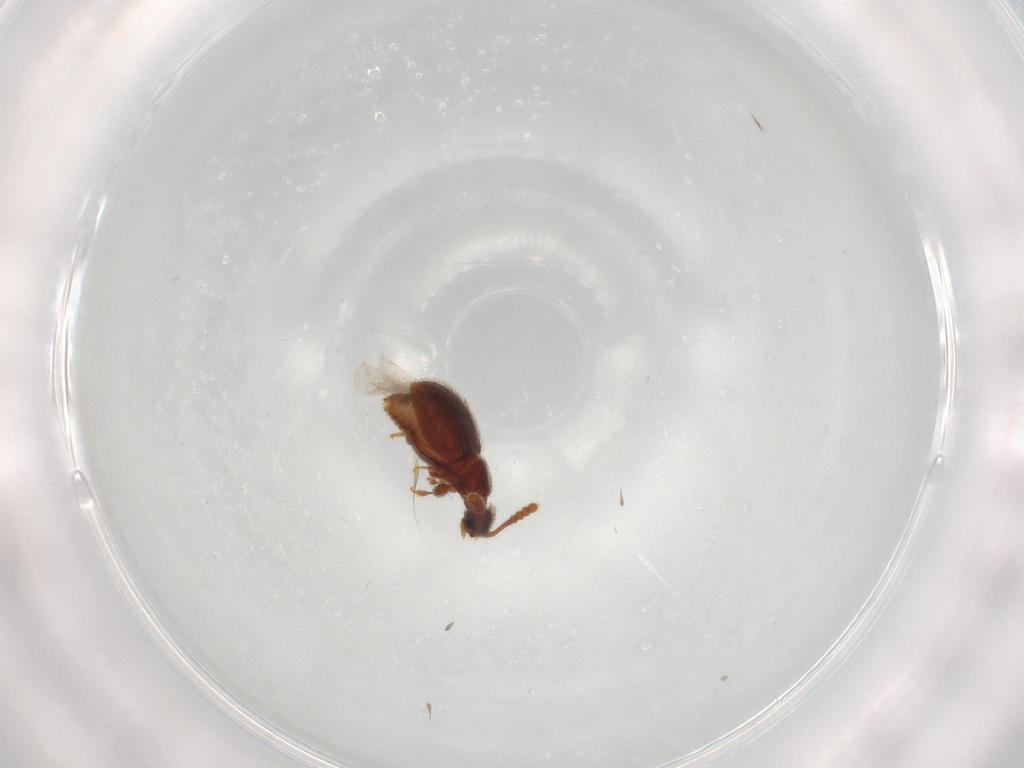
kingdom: Animalia
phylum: Arthropoda
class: Insecta
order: Coleoptera
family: Staphylinidae
